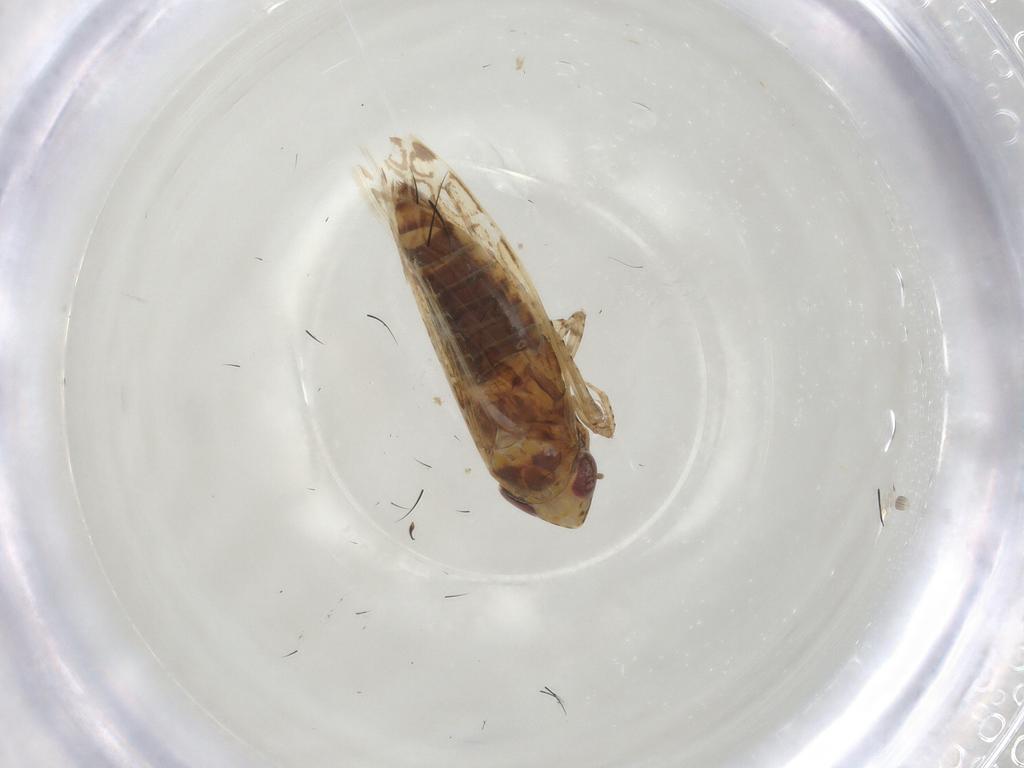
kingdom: Animalia
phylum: Arthropoda
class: Insecta
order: Hemiptera
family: Cicadellidae
